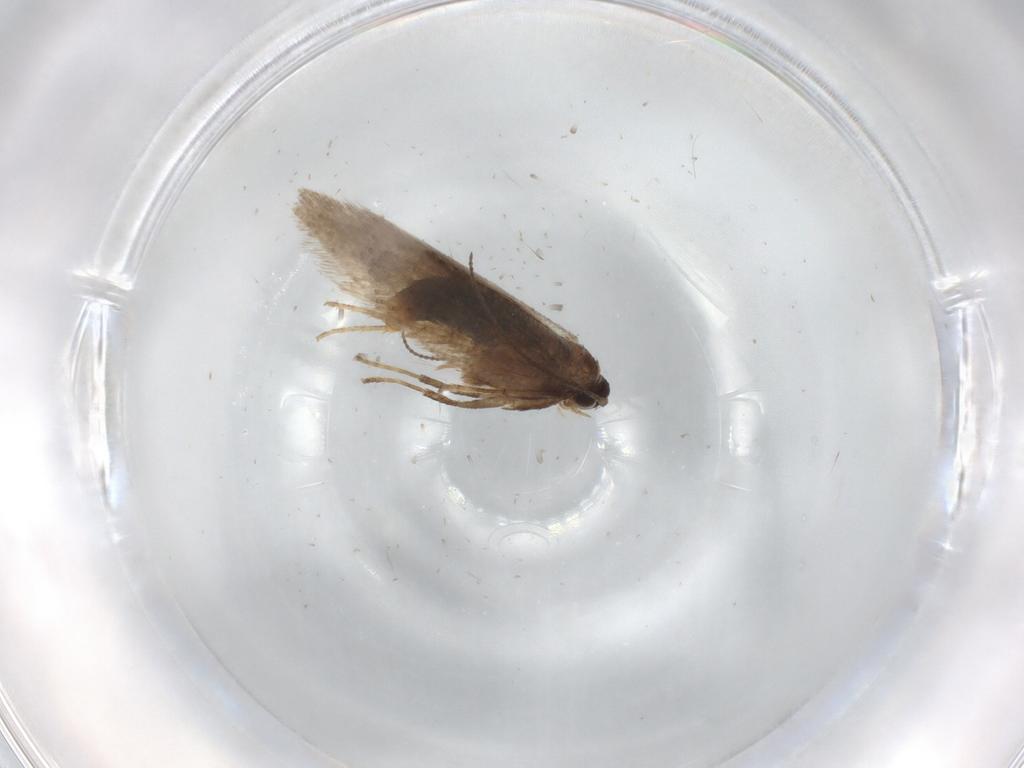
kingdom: Animalia
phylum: Arthropoda
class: Insecta
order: Lepidoptera
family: Nepticulidae
